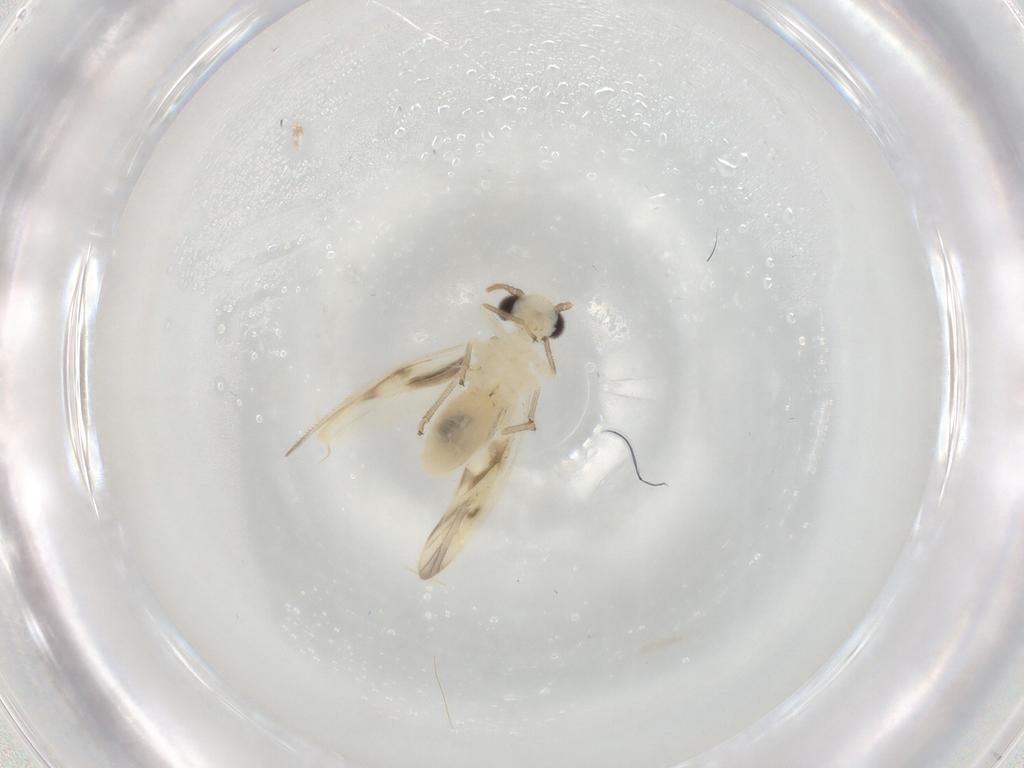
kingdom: Animalia
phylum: Arthropoda
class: Insecta
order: Psocodea
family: Caeciliusidae
